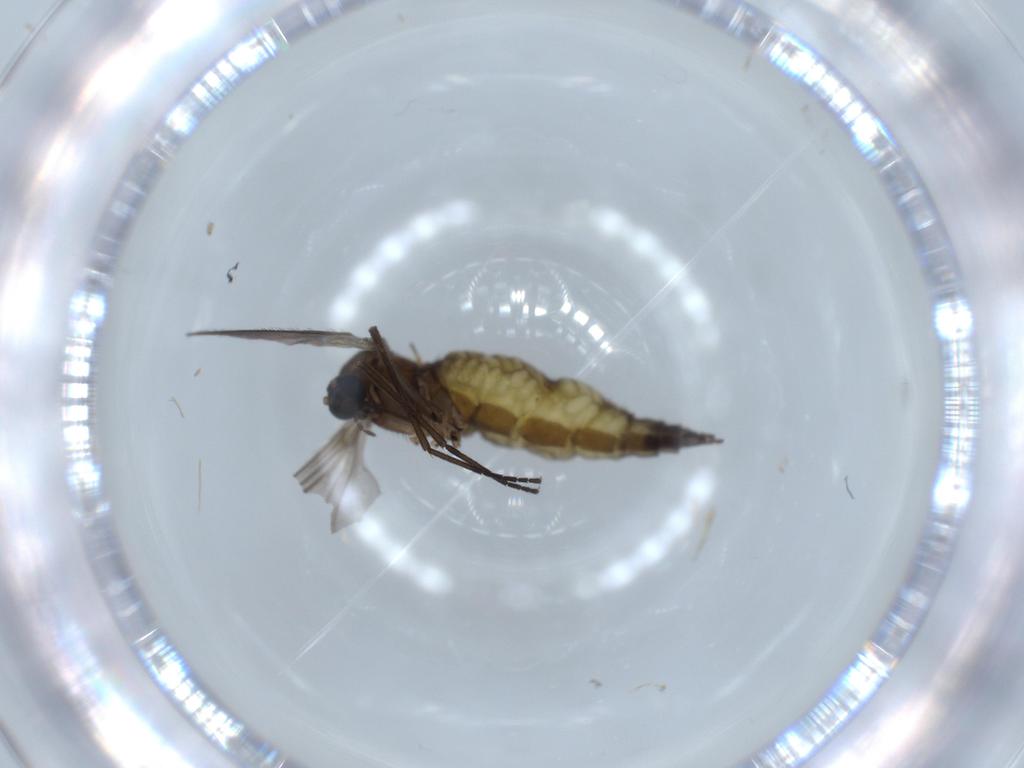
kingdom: Animalia
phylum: Arthropoda
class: Insecta
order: Diptera
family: Sciaridae
